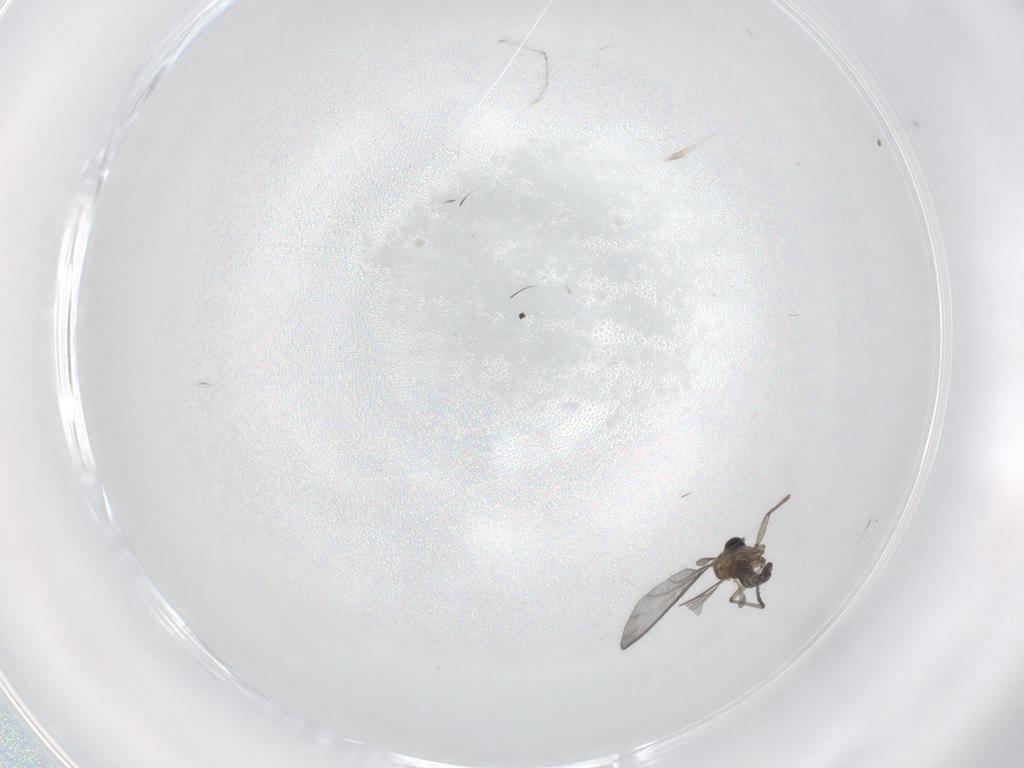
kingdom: Animalia
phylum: Arthropoda
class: Insecta
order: Diptera
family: Sciaridae
